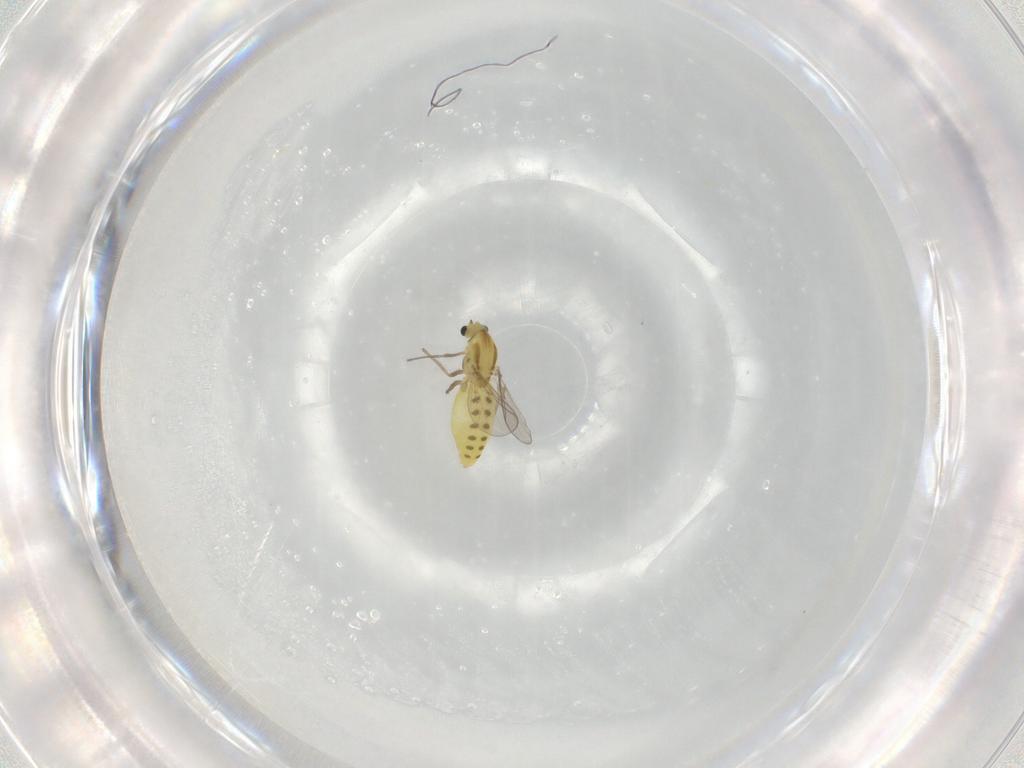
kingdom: Animalia
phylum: Arthropoda
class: Insecta
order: Diptera
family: Chironomidae
